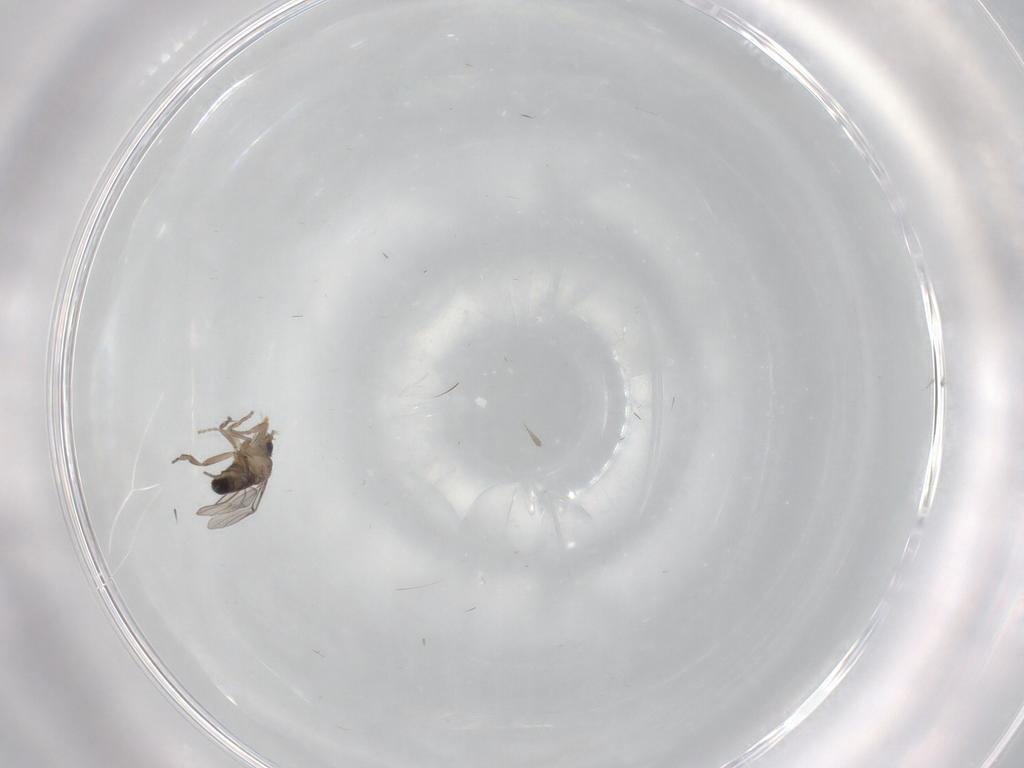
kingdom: Animalia
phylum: Arthropoda
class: Insecta
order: Diptera
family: Phoridae
